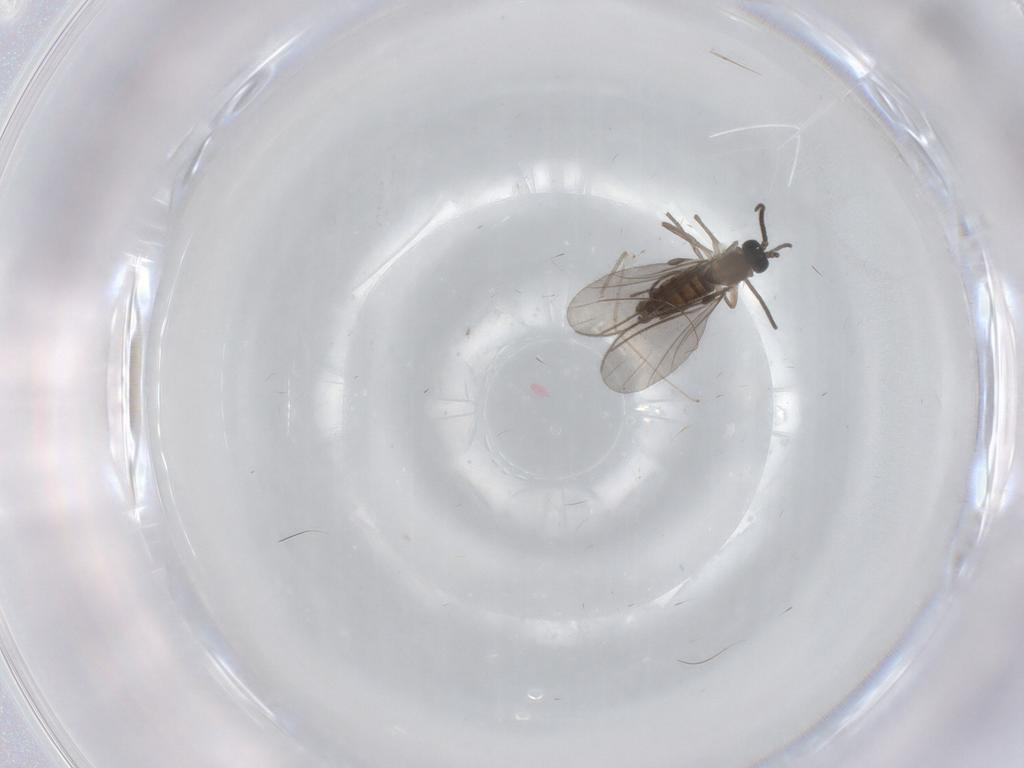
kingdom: Animalia
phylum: Arthropoda
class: Insecta
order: Diptera
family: Sciaridae
